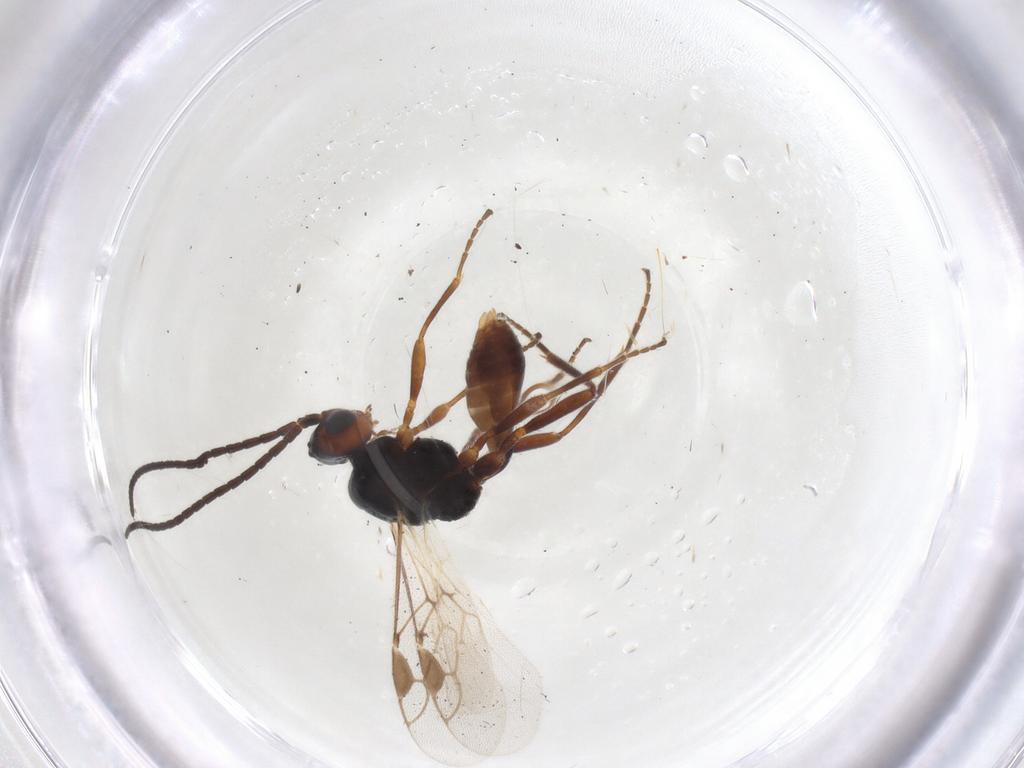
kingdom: Animalia
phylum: Arthropoda
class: Insecta
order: Hymenoptera
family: Braconidae
